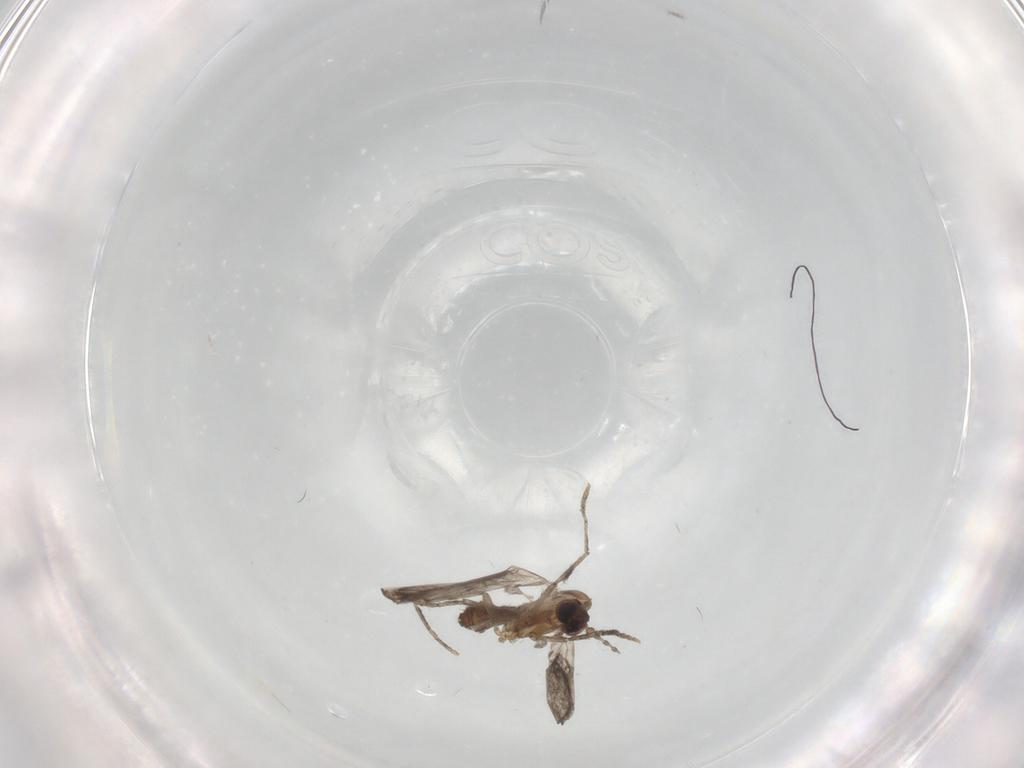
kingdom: Animalia
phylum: Arthropoda
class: Insecta
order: Diptera
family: Cecidomyiidae
